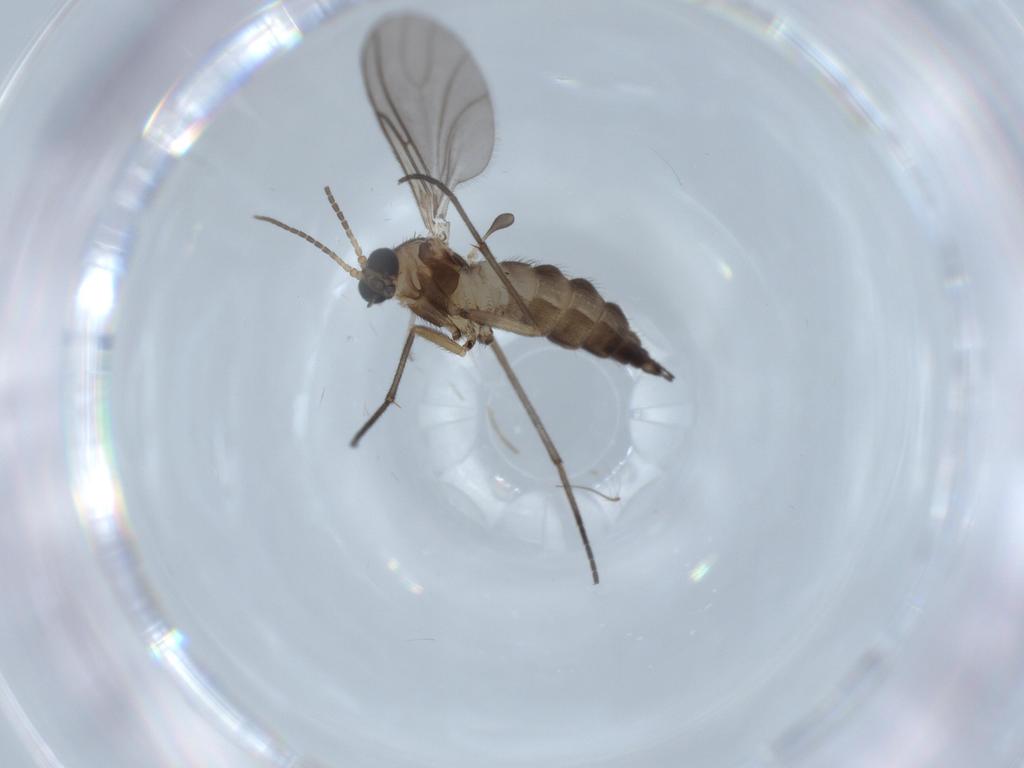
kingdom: Animalia
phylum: Arthropoda
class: Insecta
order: Diptera
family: Sciaridae
